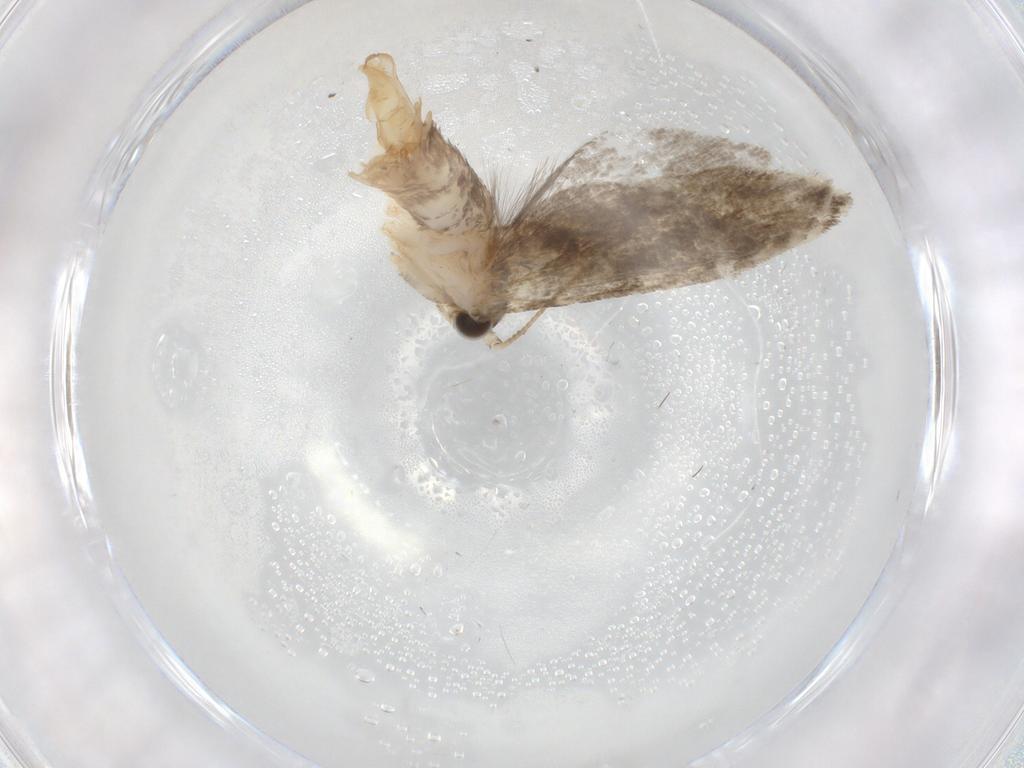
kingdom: Animalia
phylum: Arthropoda
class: Insecta
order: Lepidoptera
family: Tineidae
